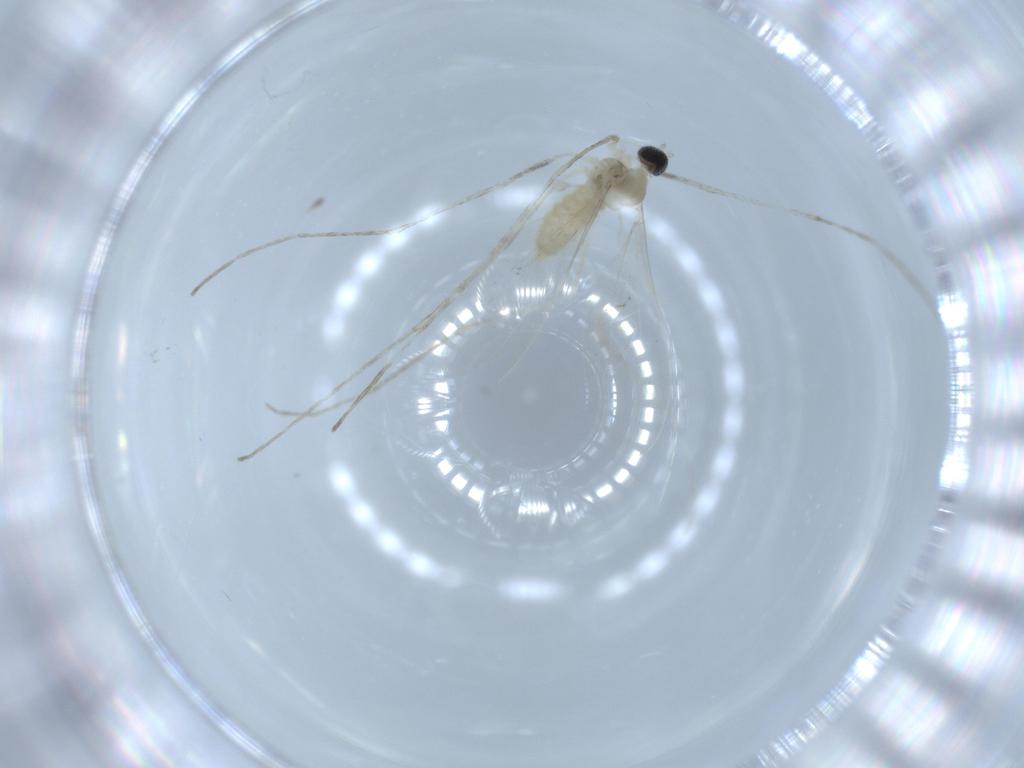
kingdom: Animalia
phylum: Arthropoda
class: Insecta
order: Diptera
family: Cecidomyiidae
